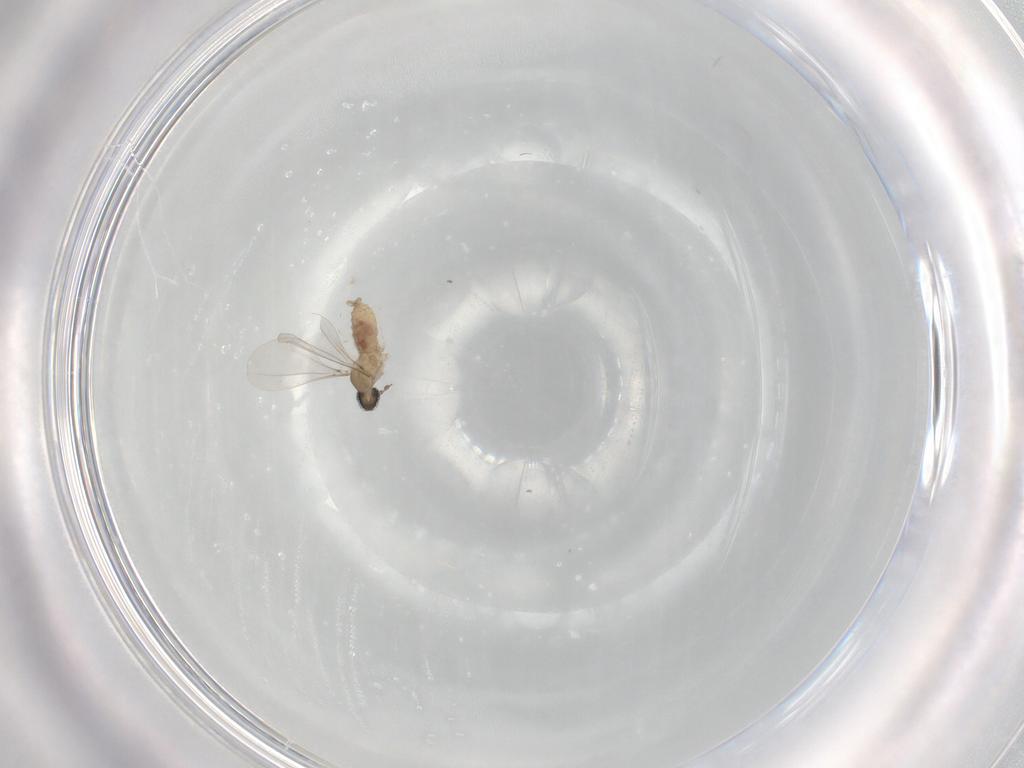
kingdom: Animalia
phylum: Arthropoda
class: Insecta
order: Diptera
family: Cecidomyiidae
